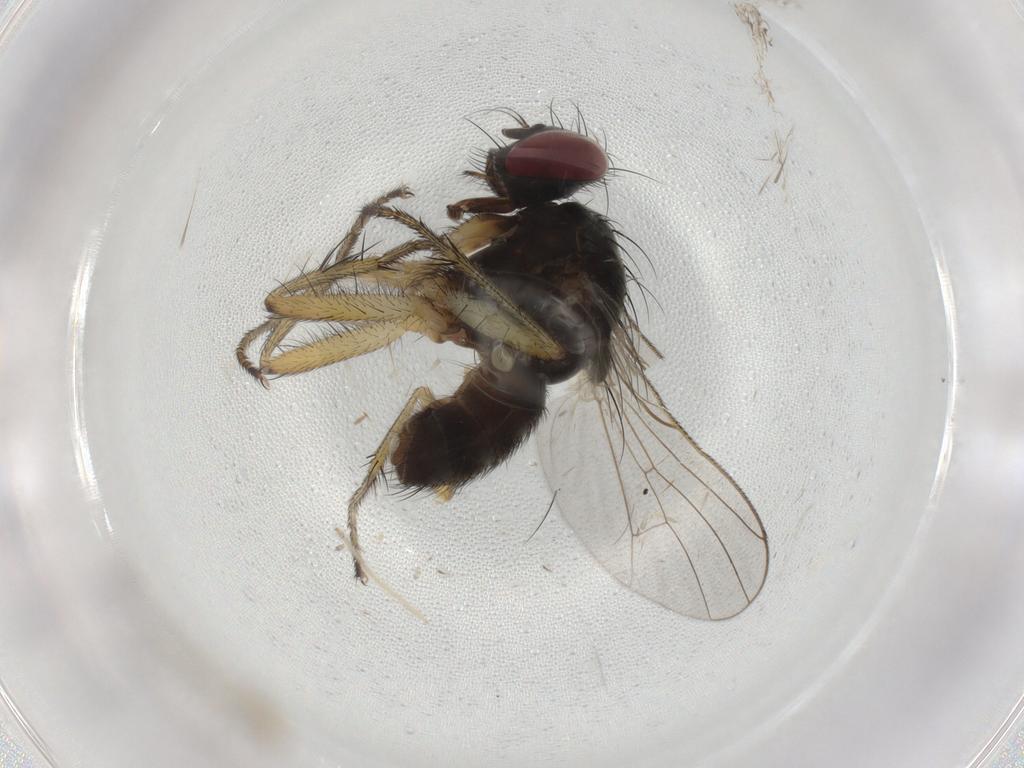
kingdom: Animalia
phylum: Arthropoda
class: Insecta
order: Diptera
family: Muscidae
